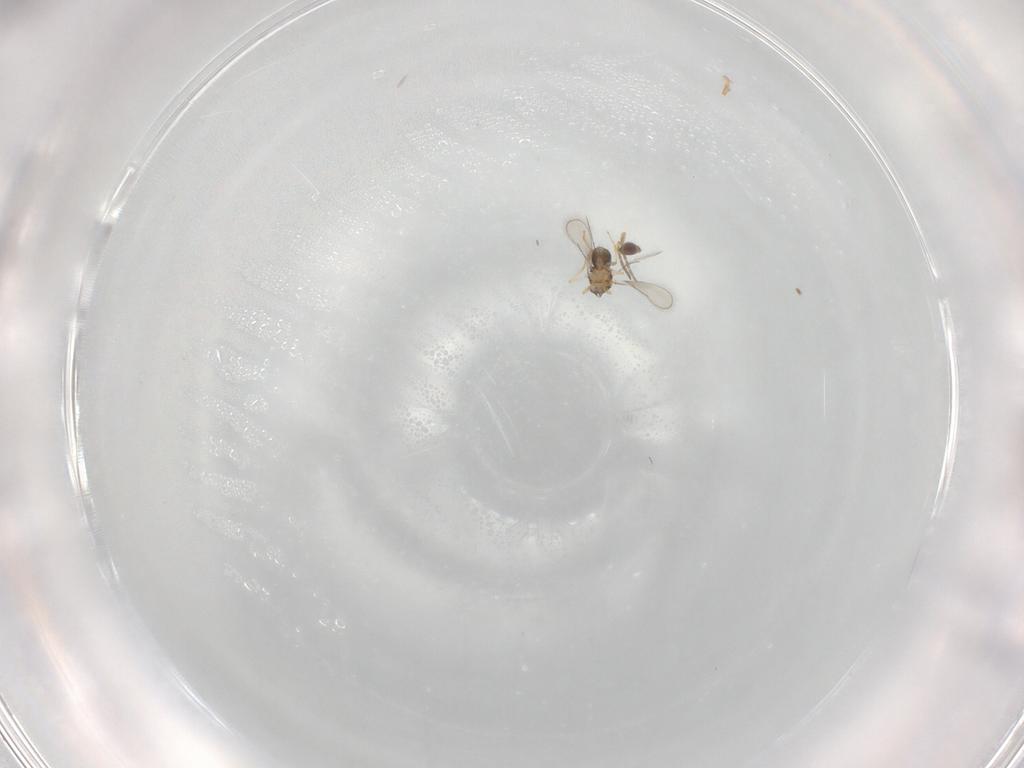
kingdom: Animalia
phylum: Arthropoda
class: Insecta
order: Hymenoptera
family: Aphelinidae
